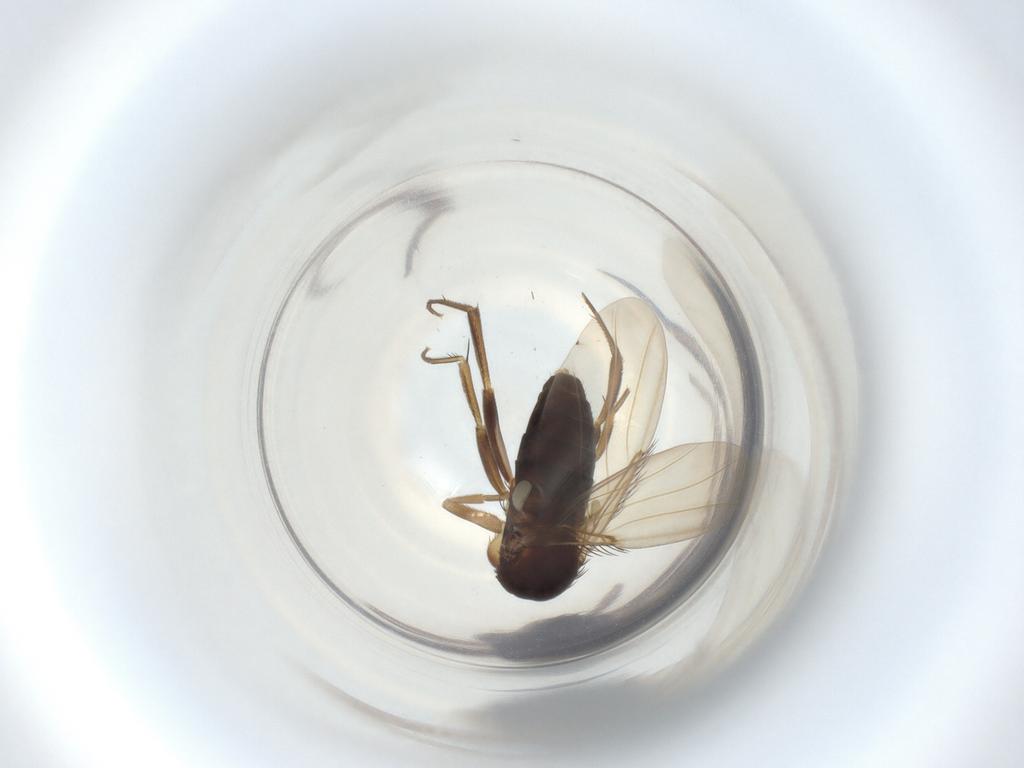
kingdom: Animalia
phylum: Arthropoda
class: Insecta
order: Diptera
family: Phoridae
